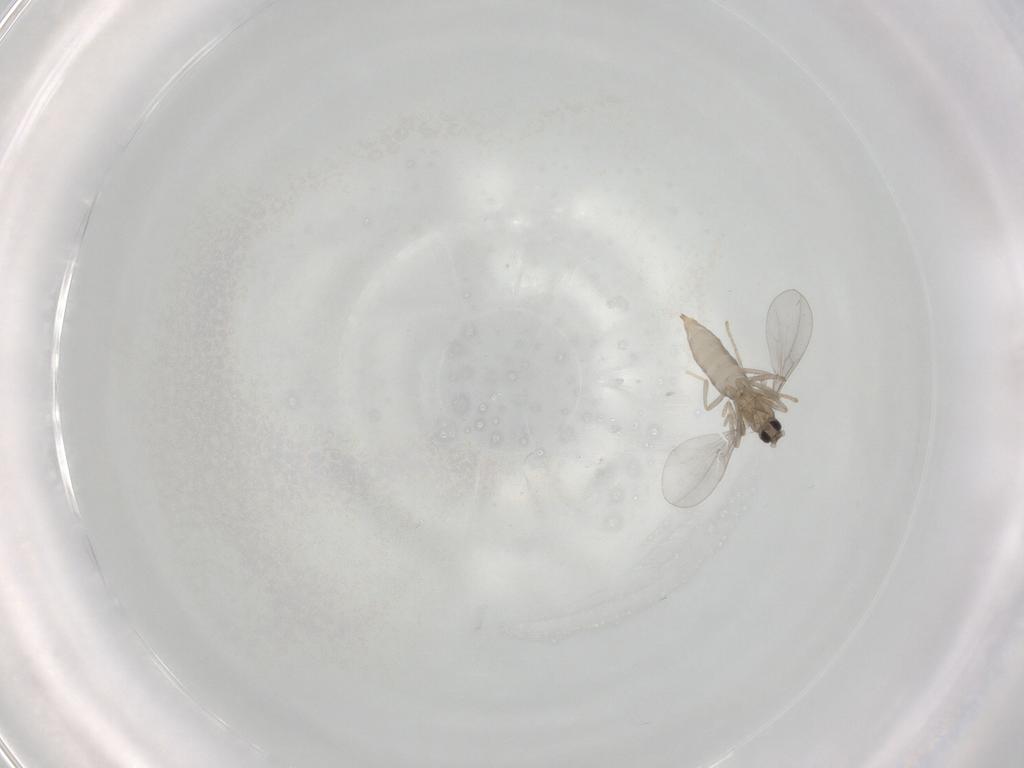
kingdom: Animalia
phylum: Arthropoda
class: Insecta
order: Diptera
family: Cecidomyiidae
